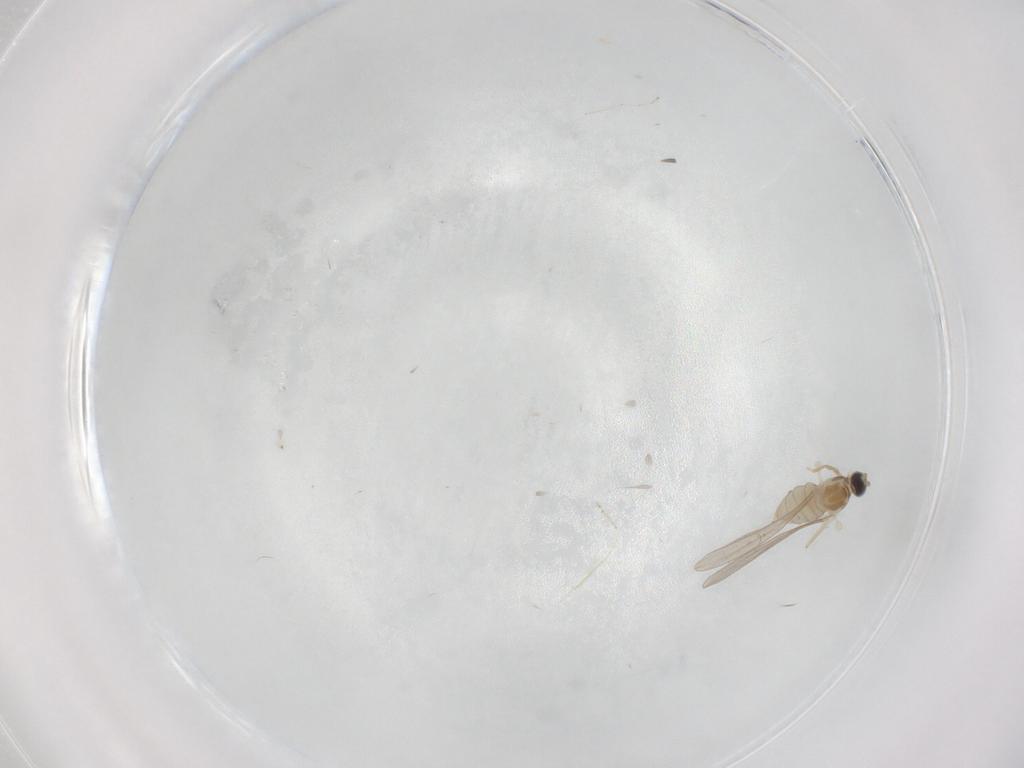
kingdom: Animalia
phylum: Arthropoda
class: Insecta
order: Diptera
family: Cecidomyiidae
